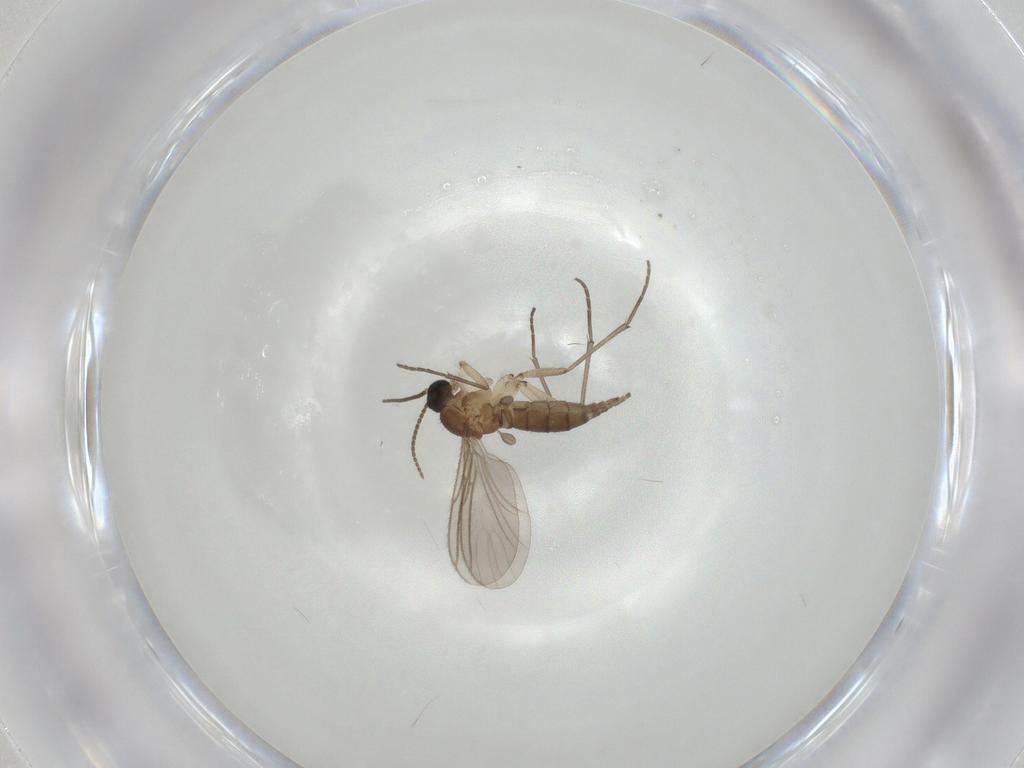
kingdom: Animalia
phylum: Arthropoda
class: Insecta
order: Diptera
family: Sciaridae
